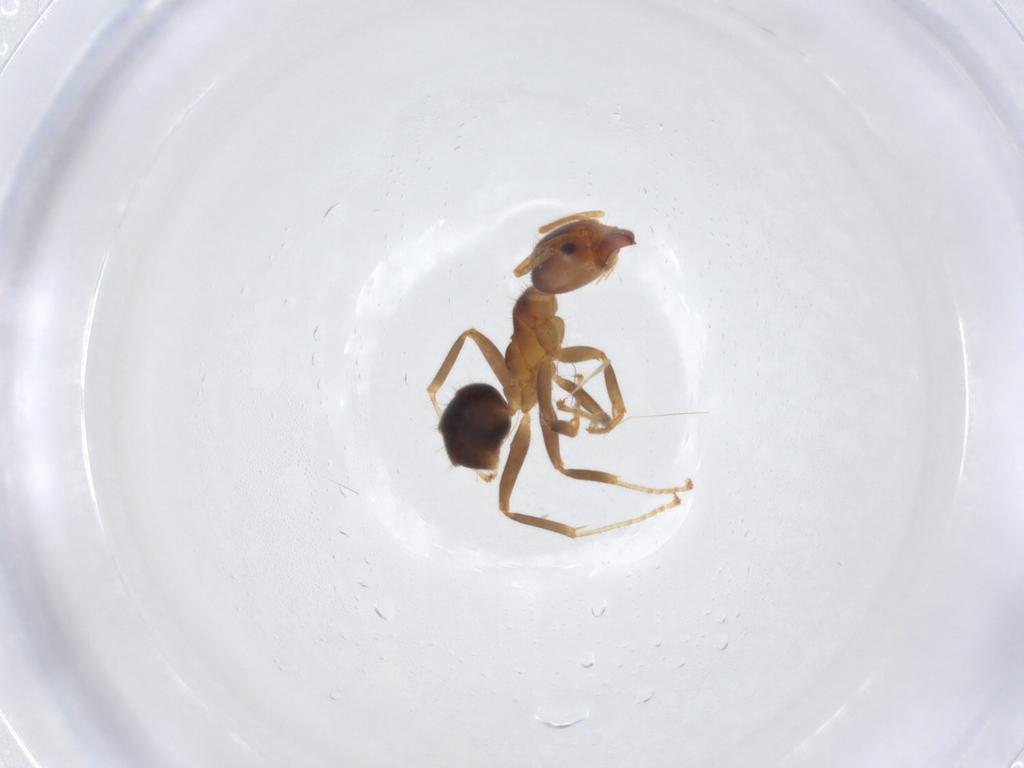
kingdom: Animalia
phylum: Arthropoda
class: Insecta
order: Hymenoptera
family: Formicidae
